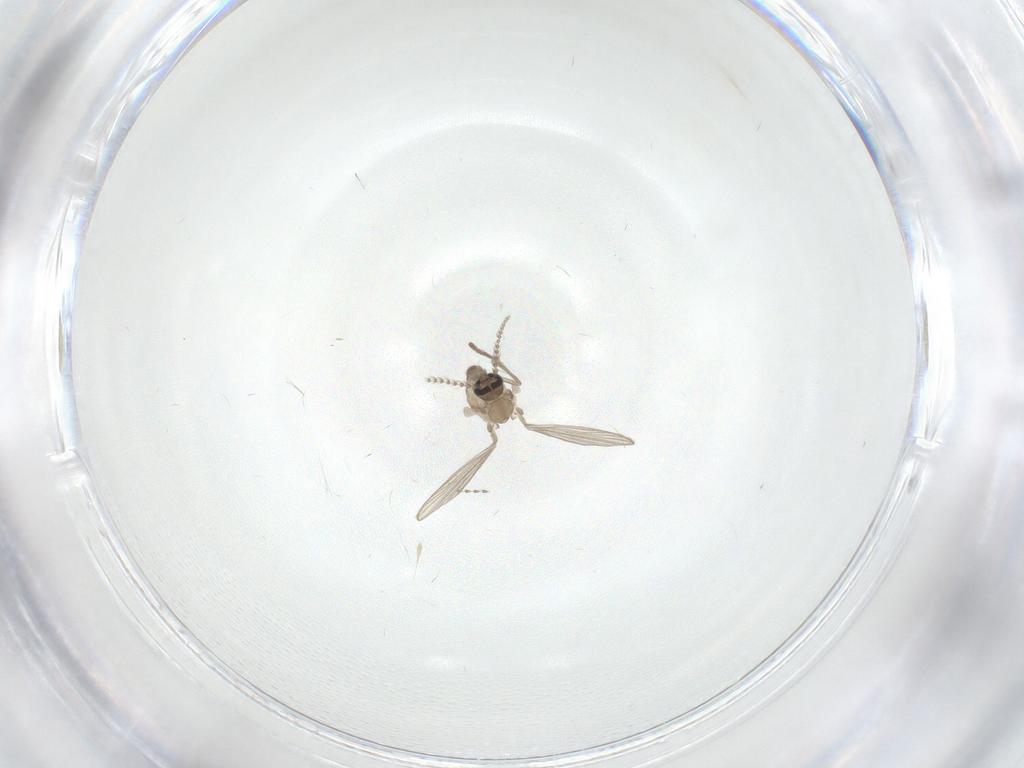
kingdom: Animalia
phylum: Arthropoda
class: Insecta
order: Diptera
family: Psychodidae
